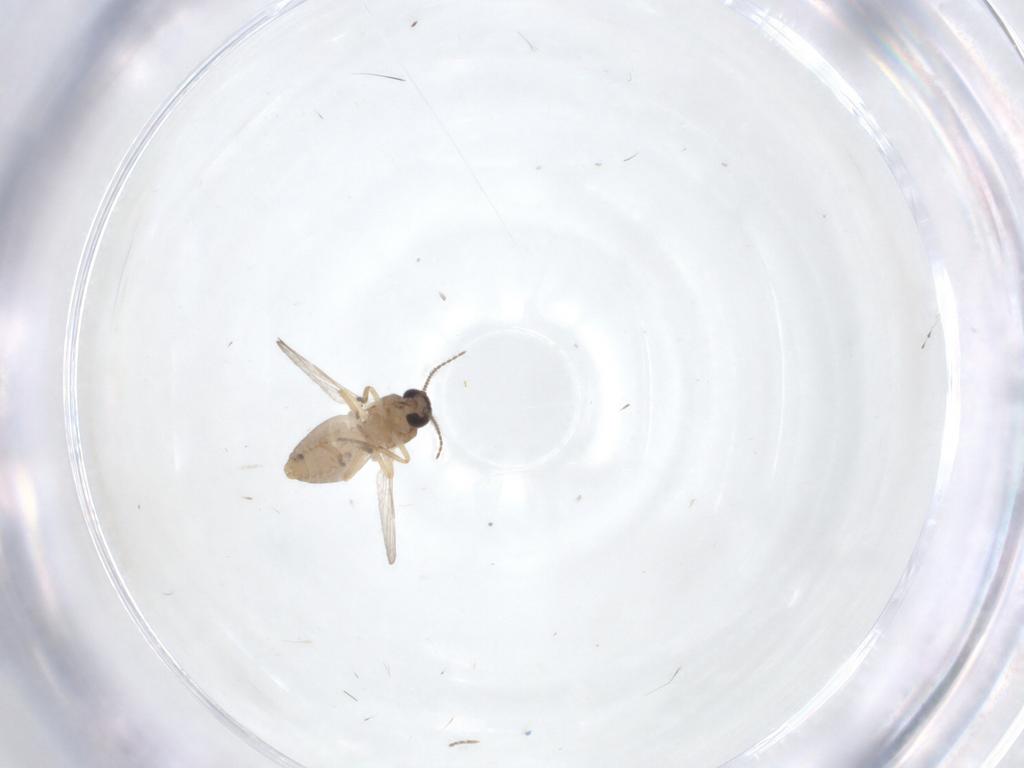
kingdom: Animalia
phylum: Arthropoda
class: Insecta
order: Diptera
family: Ceratopogonidae
